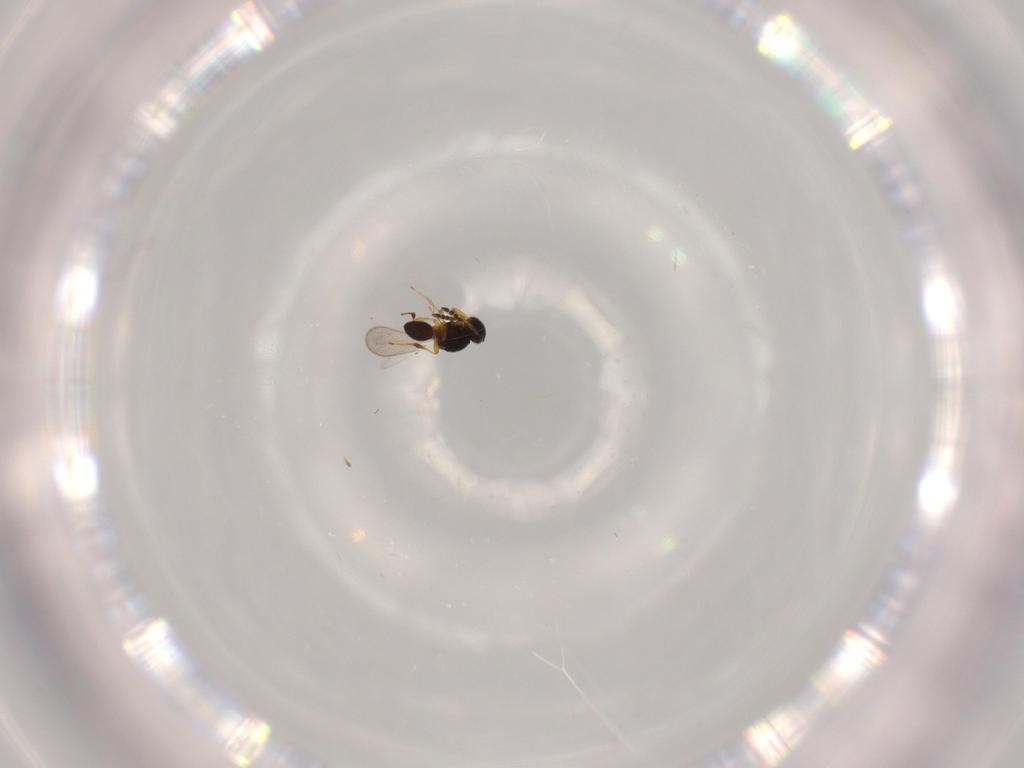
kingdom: Animalia
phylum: Arthropoda
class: Insecta
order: Hymenoptera
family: Platygastridae
